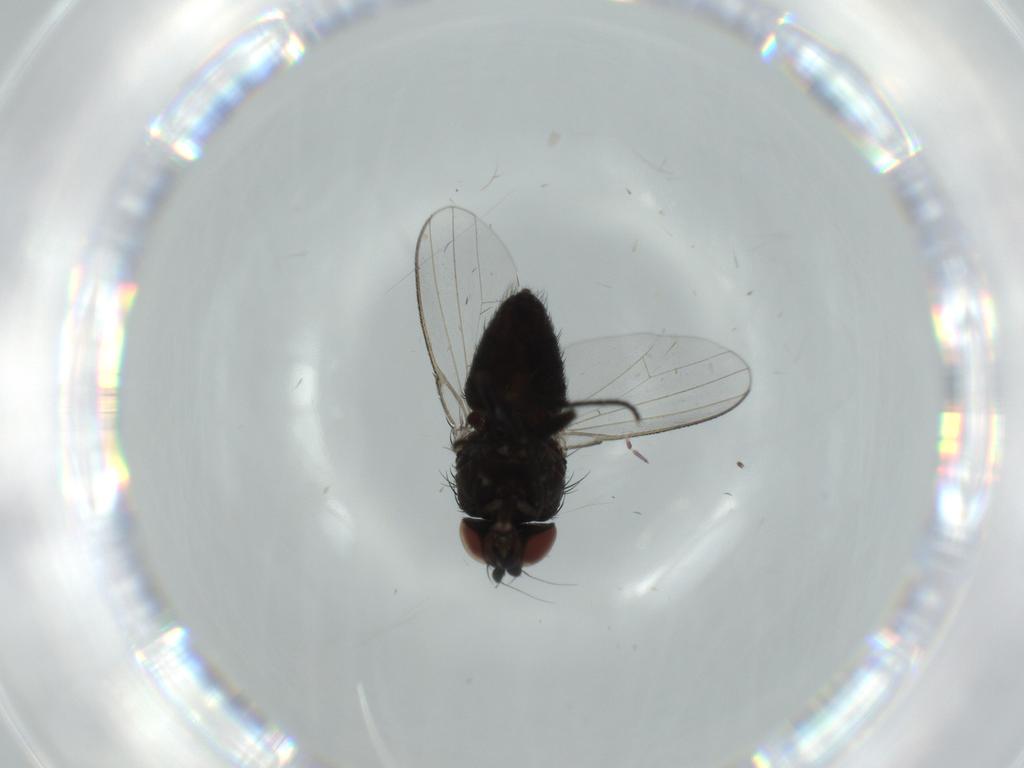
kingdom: Animalia
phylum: Arthropoda
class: Insecta
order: Diptera
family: Milichiidae
